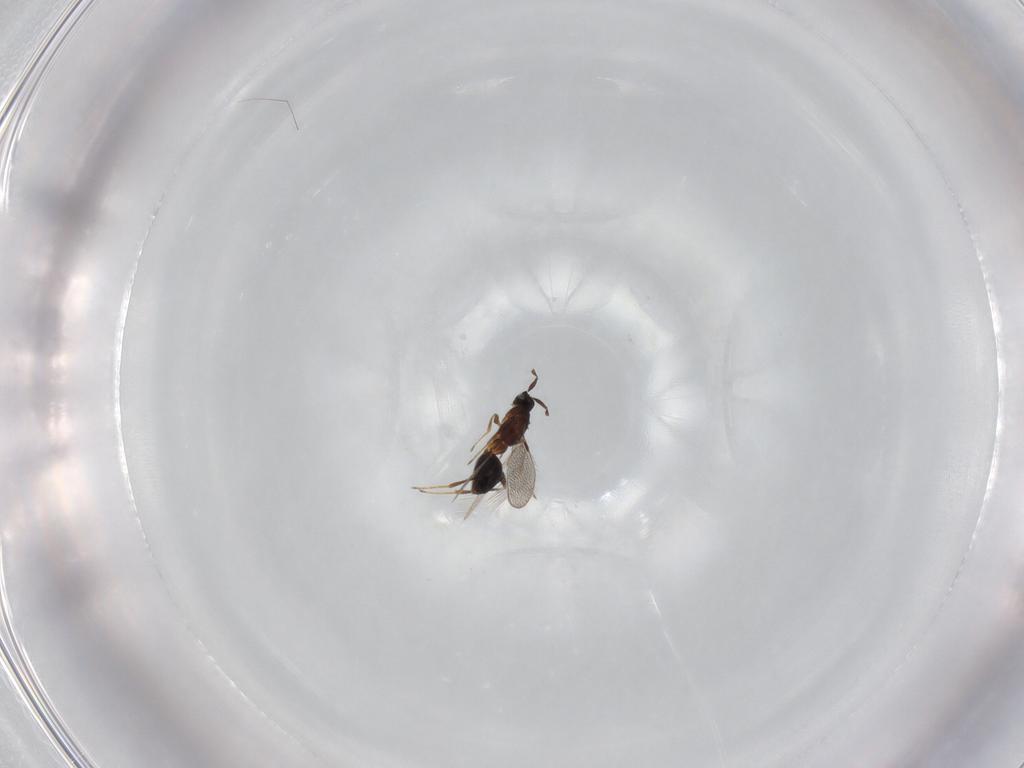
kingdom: Animalia
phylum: Arthropoda
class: Insecta
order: Hymenoptera
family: Mymaridae
